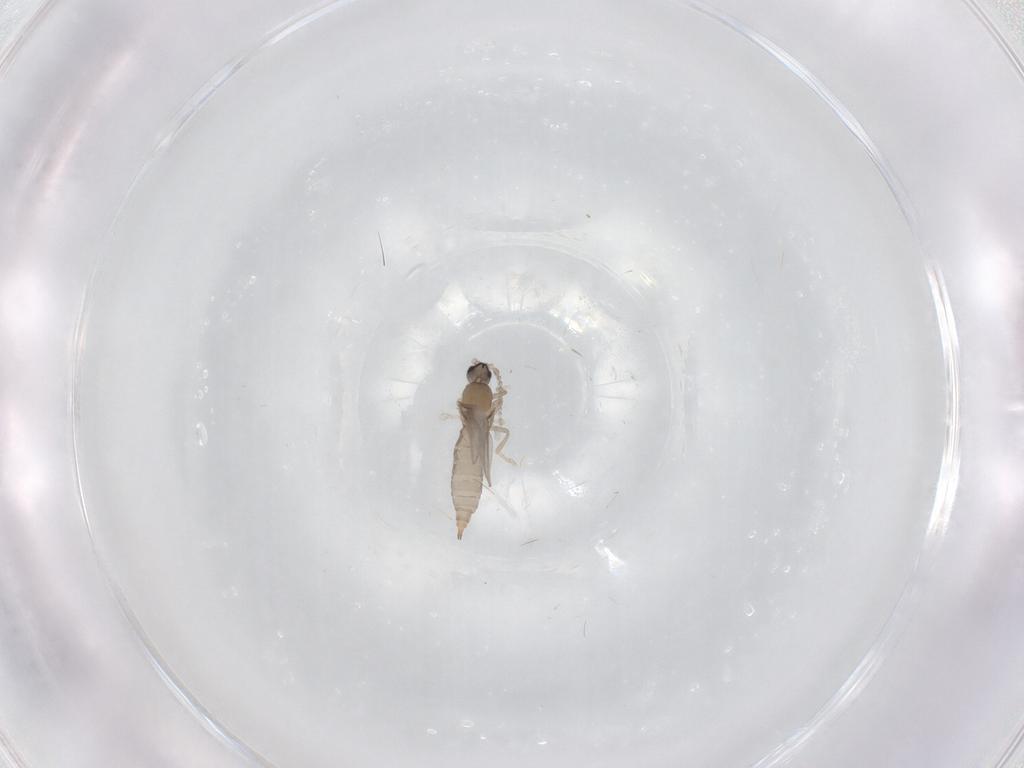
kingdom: Animalia
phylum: Arthropoda
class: Insecta
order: Diptera
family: Cecidomyiidae
